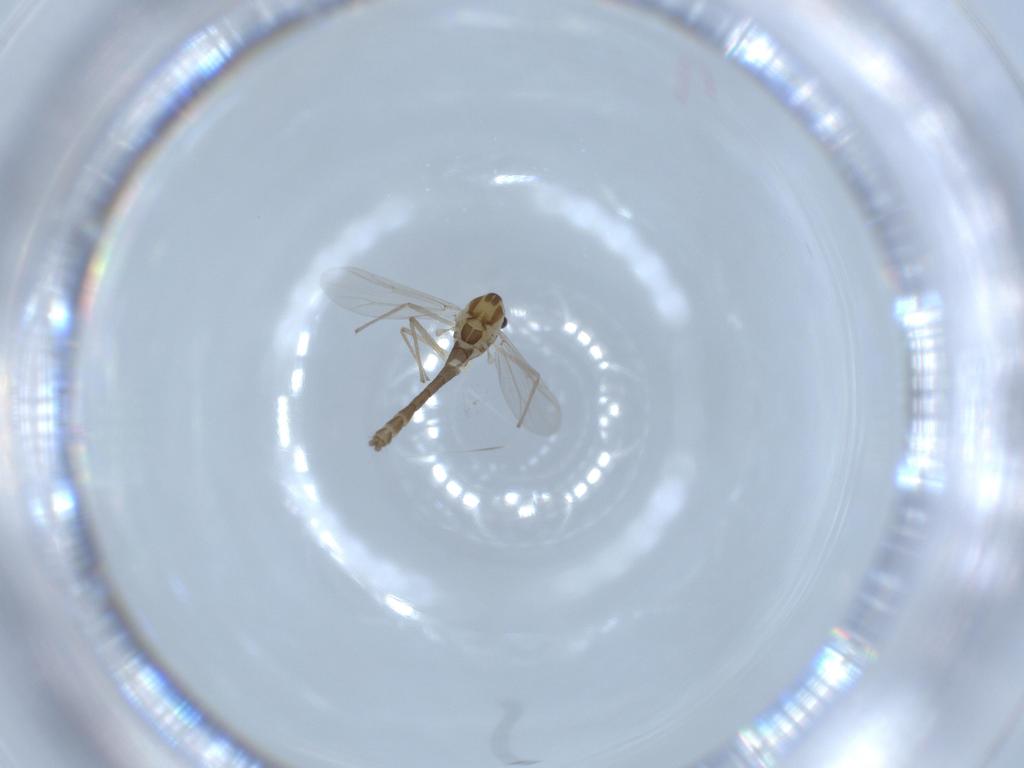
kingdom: Animalia
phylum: Arthropoda
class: Insecta
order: Diptera
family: Chironomidae
